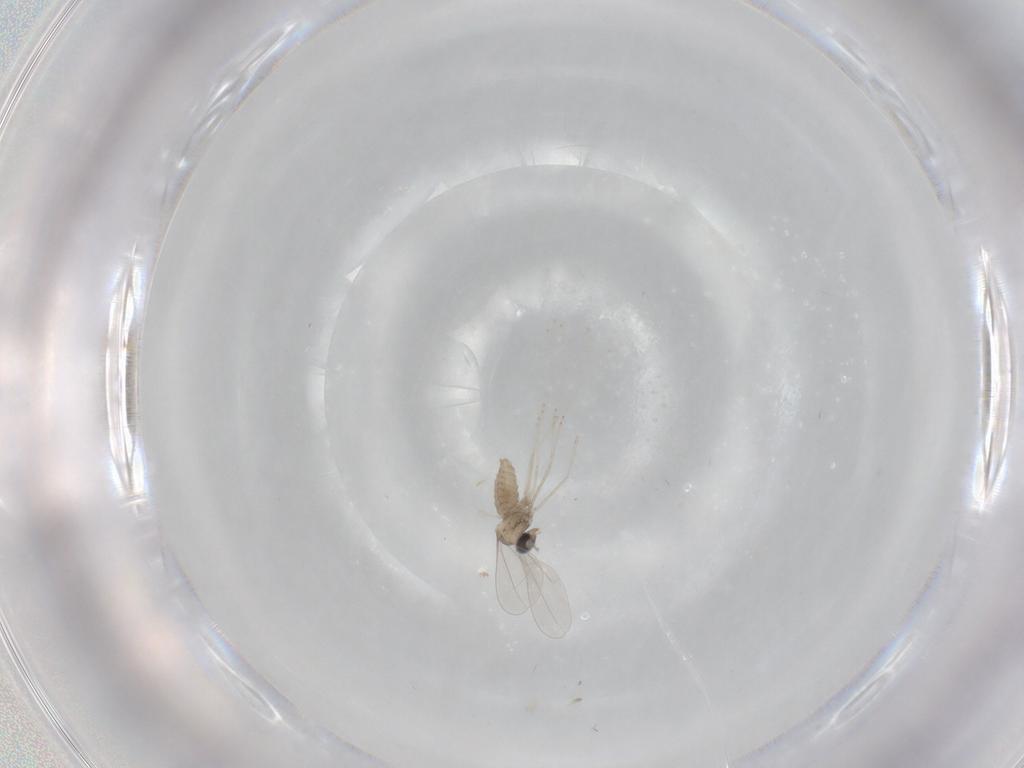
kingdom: Animalia
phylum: Arthropoda
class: Insecta
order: Diptera
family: Cecidomyiidae
